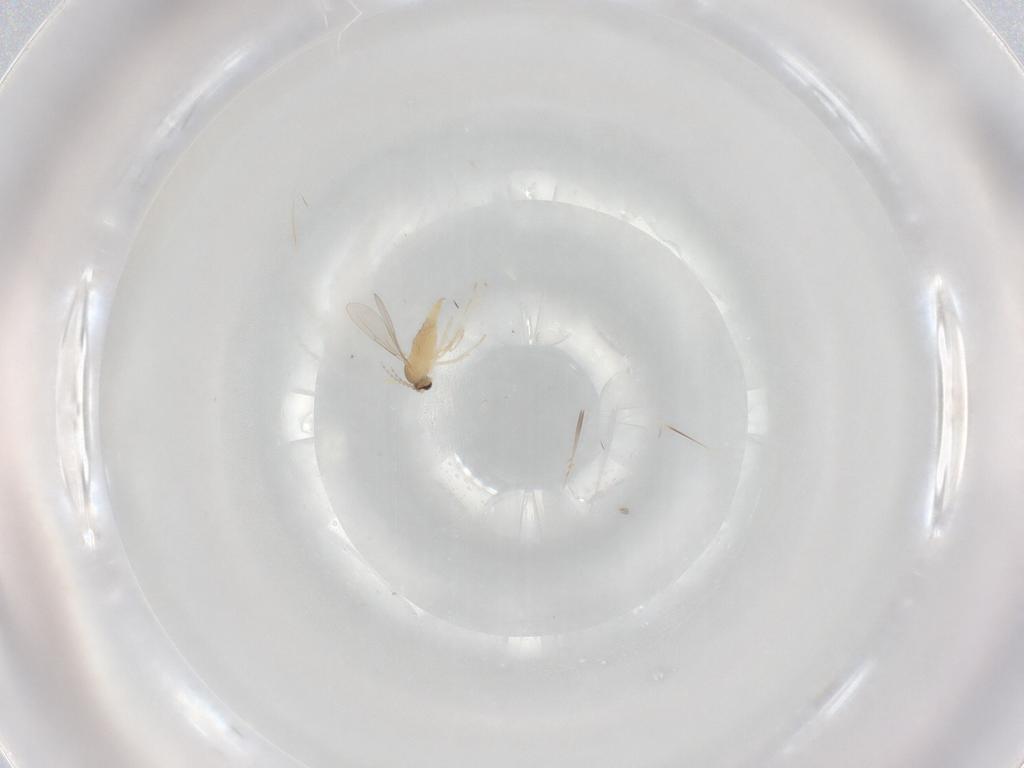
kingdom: Animalia
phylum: Arthropoda
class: Insecta
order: Diptera
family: Cecidomyiidae
